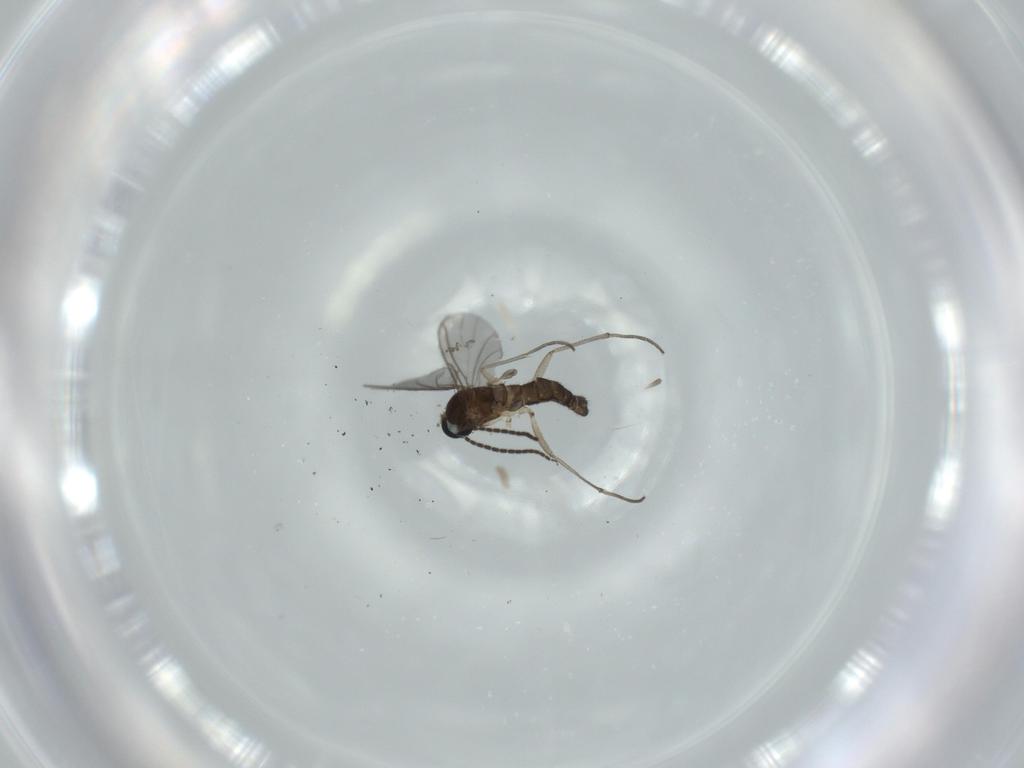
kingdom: Animalia
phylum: Arthropoda
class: Insecta
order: Diptera
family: Sciaridae
